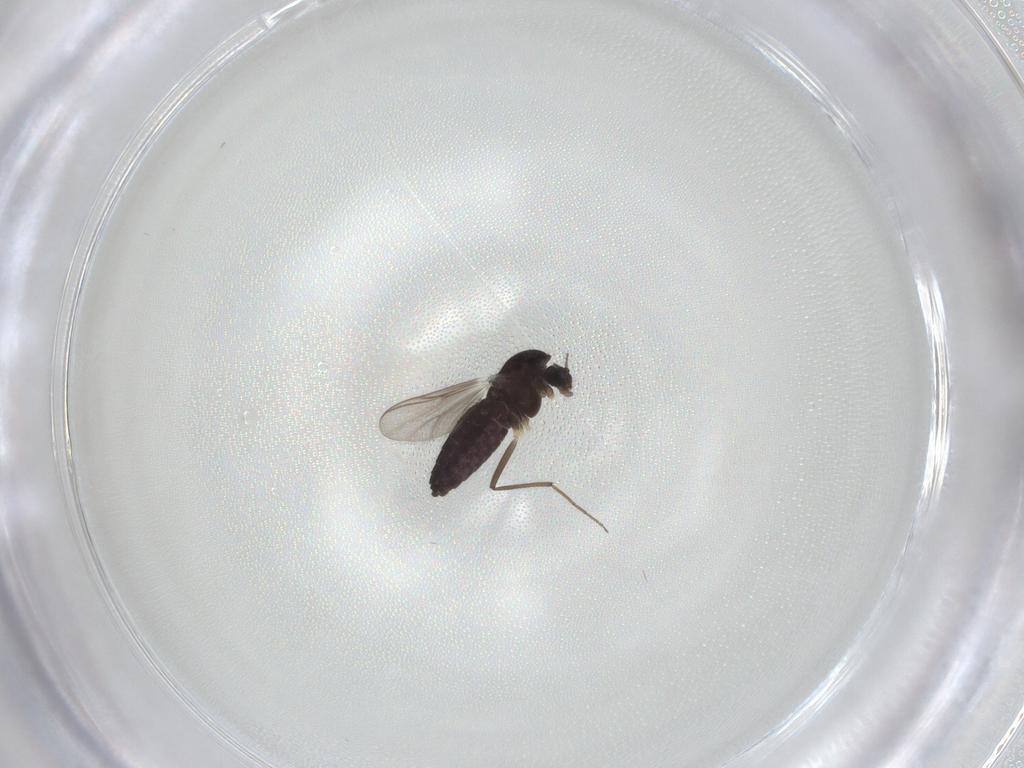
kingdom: Animalia
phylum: Arthropoda
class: Insecta
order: Diptera
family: Chironomidae
